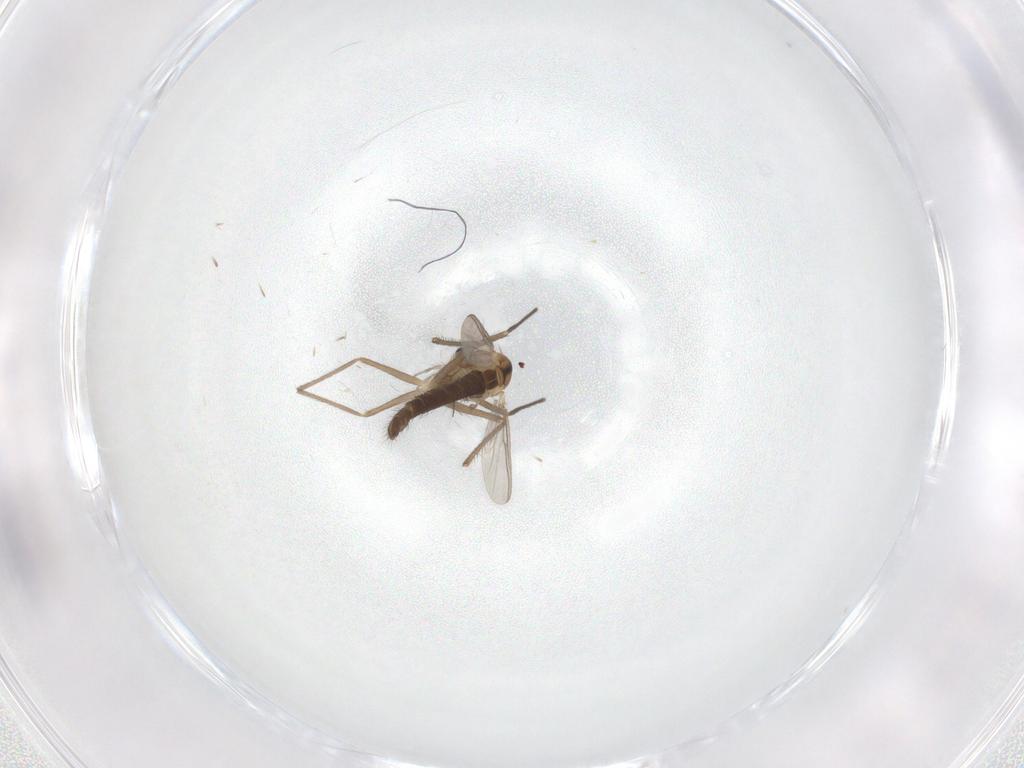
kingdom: Animalia
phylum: Arthropoda
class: Insecta
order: Diptera
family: Chironomidae
